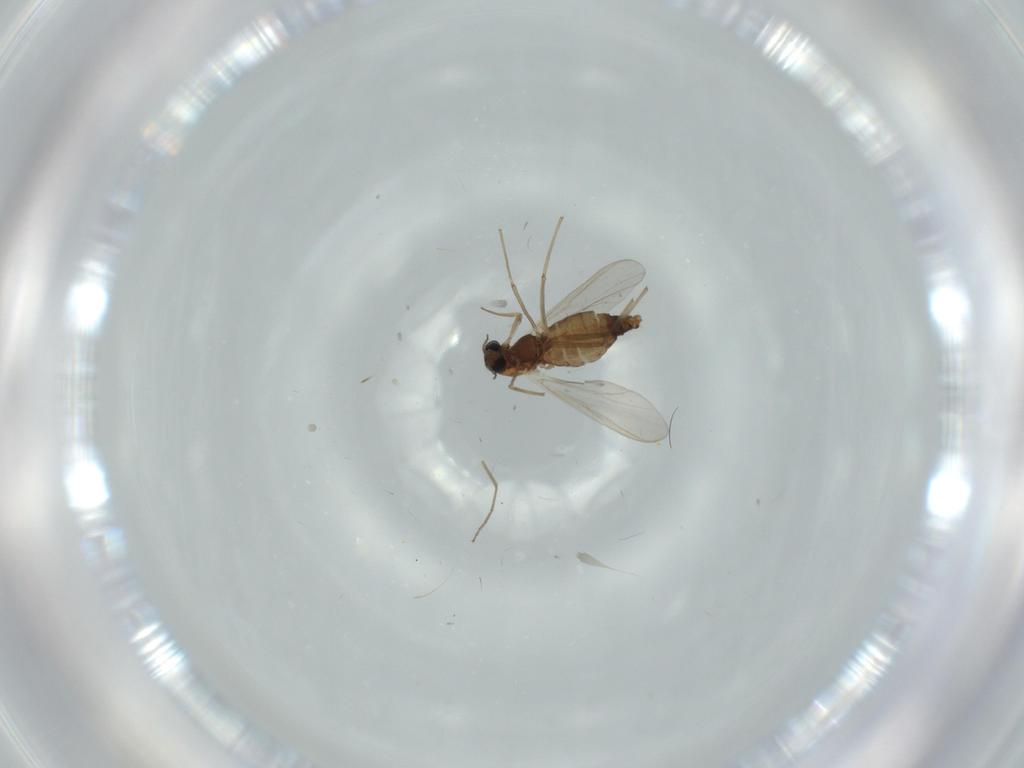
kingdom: Animalia
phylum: Arthropoda
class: Insecta
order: Diptera
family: Chironomidae
